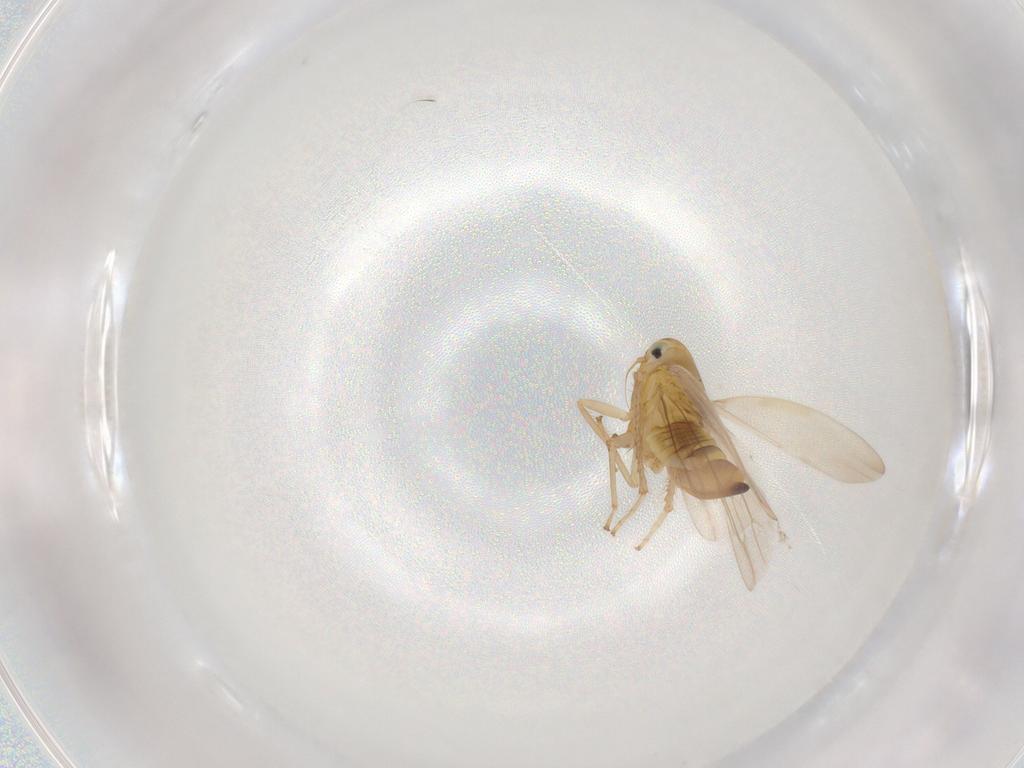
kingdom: Animalia
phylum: Arthropoda
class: Insecta
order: Hemiptera
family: Cicadellidae
